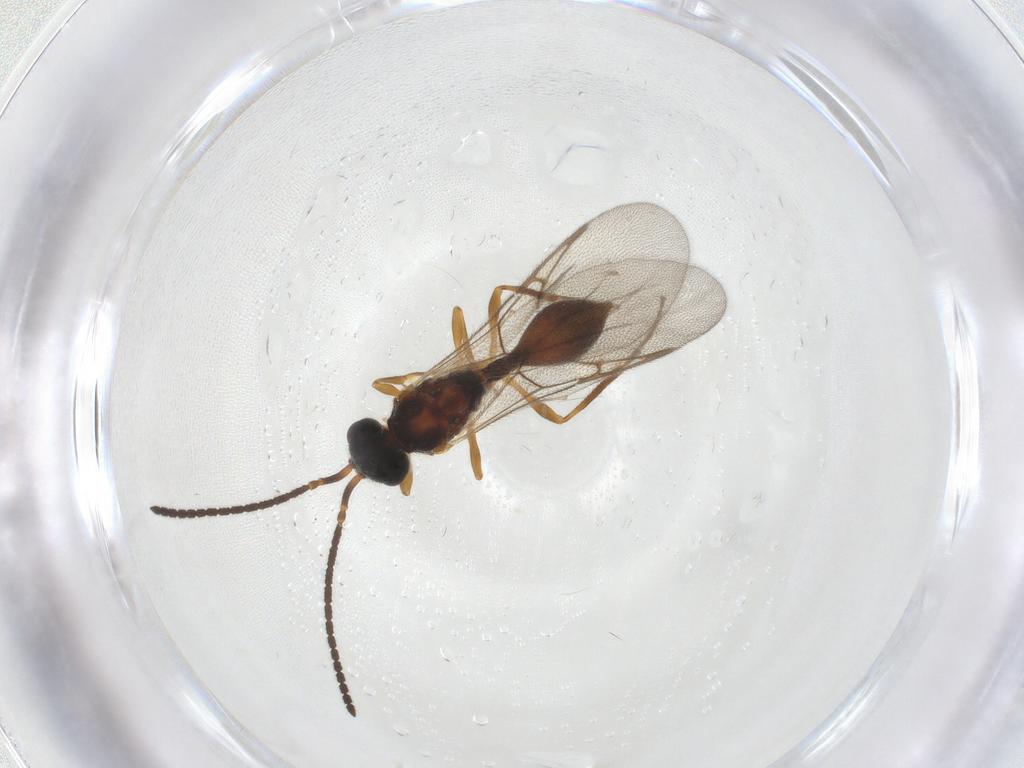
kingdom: Animalia
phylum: Arthropoda
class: Insecta
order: Hymenoptera
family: Diapriidae
